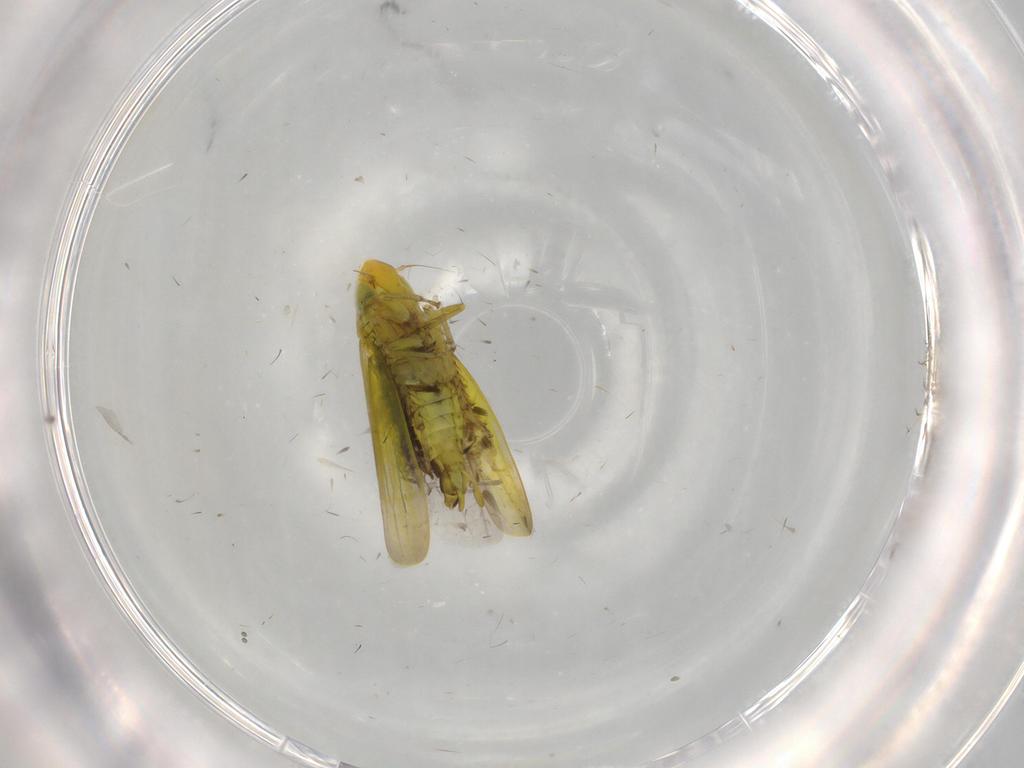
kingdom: Animalia
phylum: Arthropoda
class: Insecta
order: Hemiptera
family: Cicadellidae
